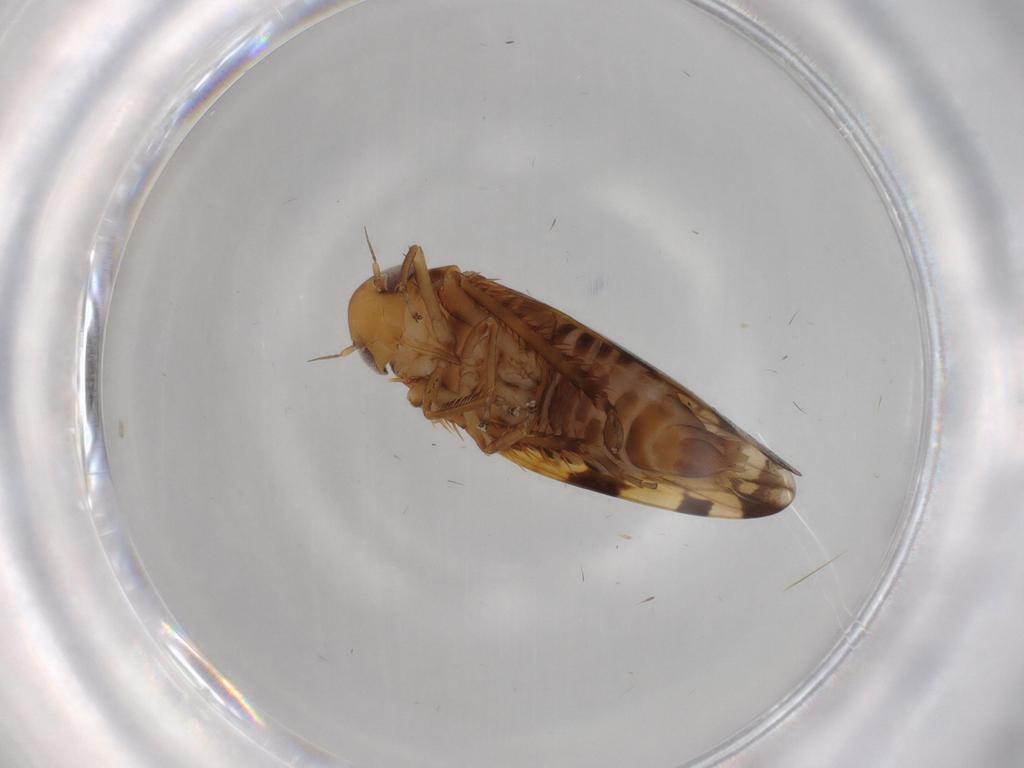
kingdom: Animalia
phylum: Arthropoda
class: Insecta
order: Hemiptera
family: Cicadellidae
